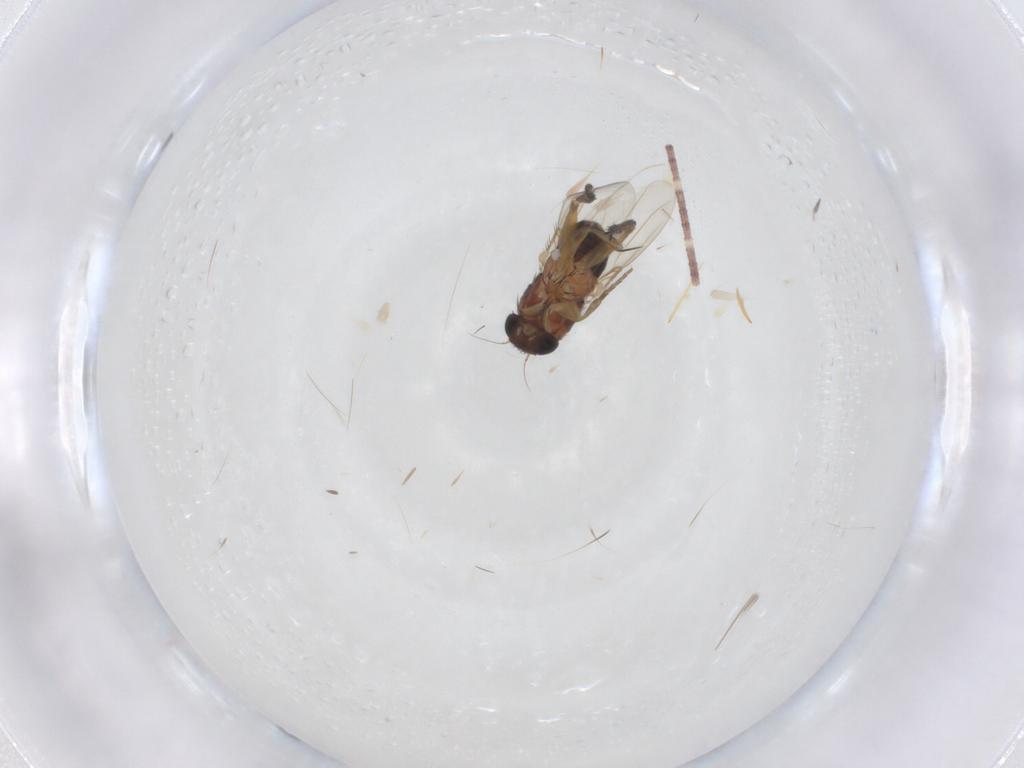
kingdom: Animalia
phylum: Arthropoda
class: Insecta
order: Diptera
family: Phoridae
